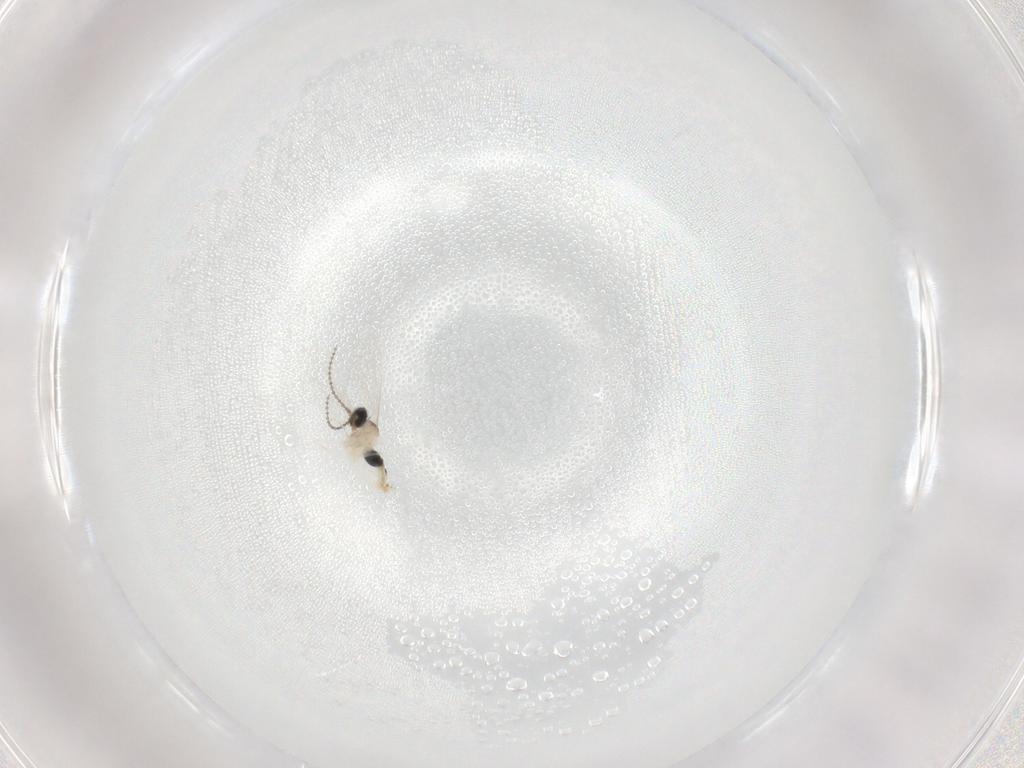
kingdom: Animalia
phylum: Arthropoda
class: Insecta
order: Diptera
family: Cecidomyiidae
